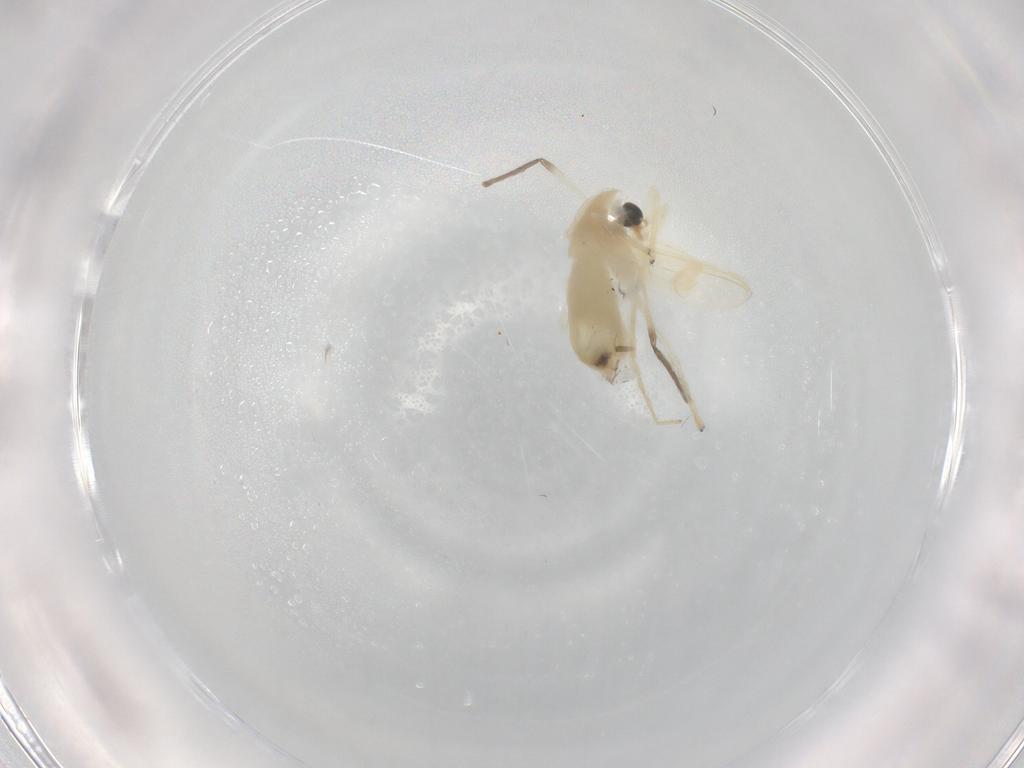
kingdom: Animalia
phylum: Arthropoda
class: Insecta
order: Diptera
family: Chironomidae
